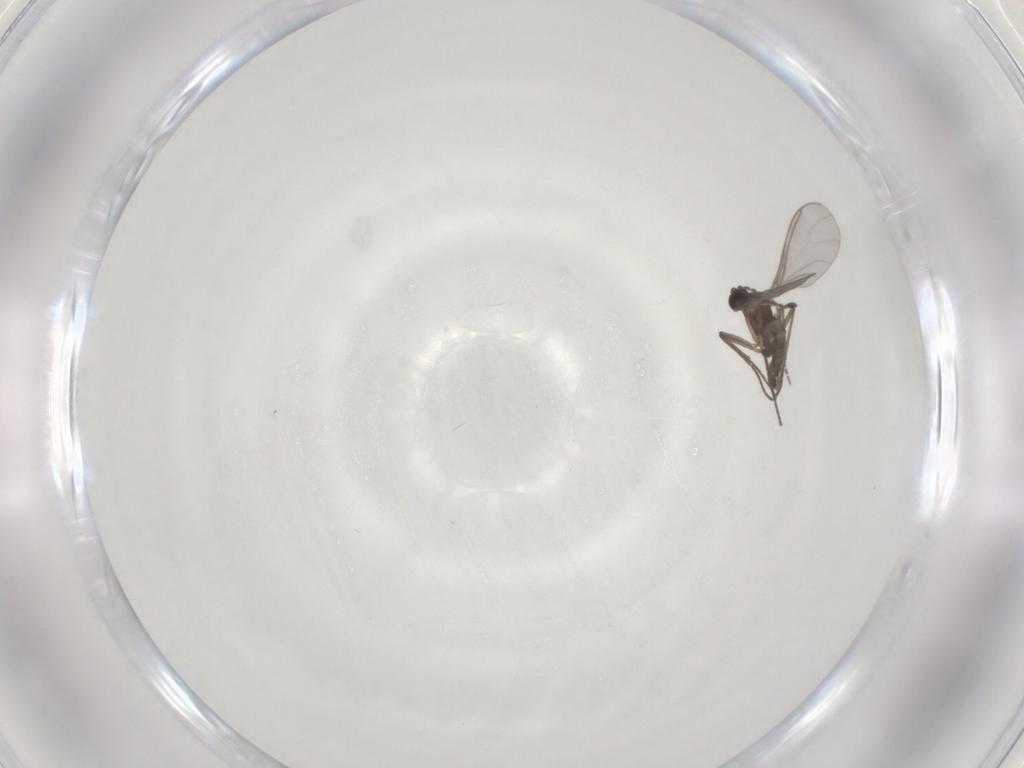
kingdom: Animalia
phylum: Arthropoda
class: Insecta
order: Diptera
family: Sciaridae
